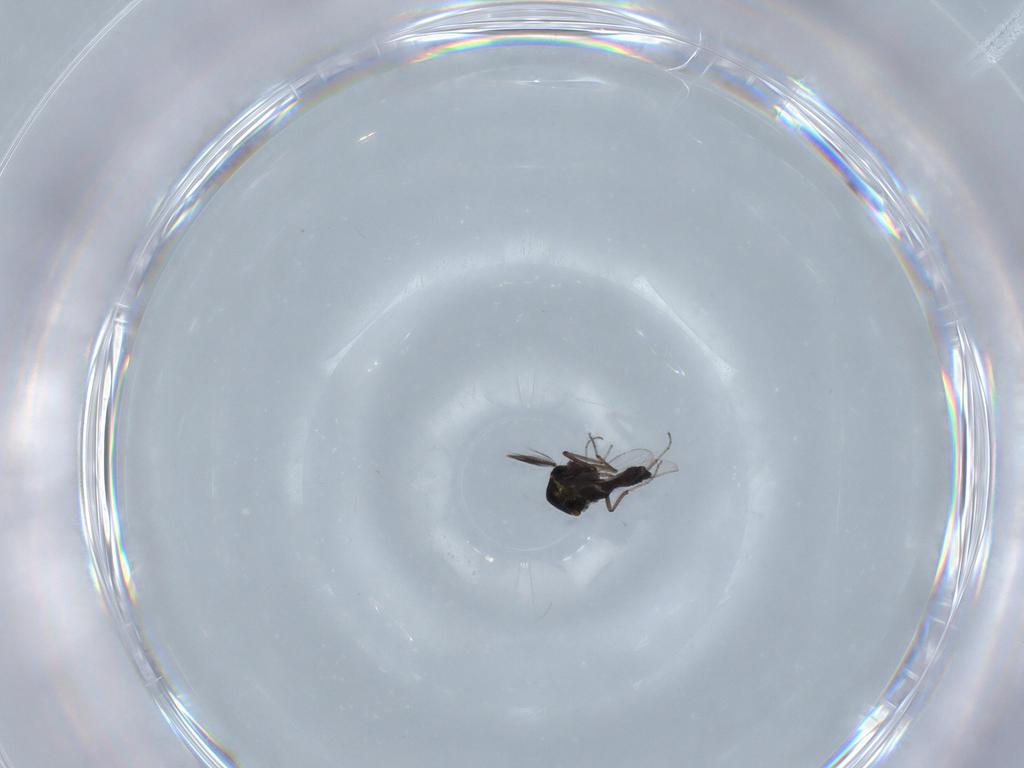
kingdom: Animalia
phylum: Arthropoda
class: Insecta
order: Diptera
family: Ceratopogonidae
